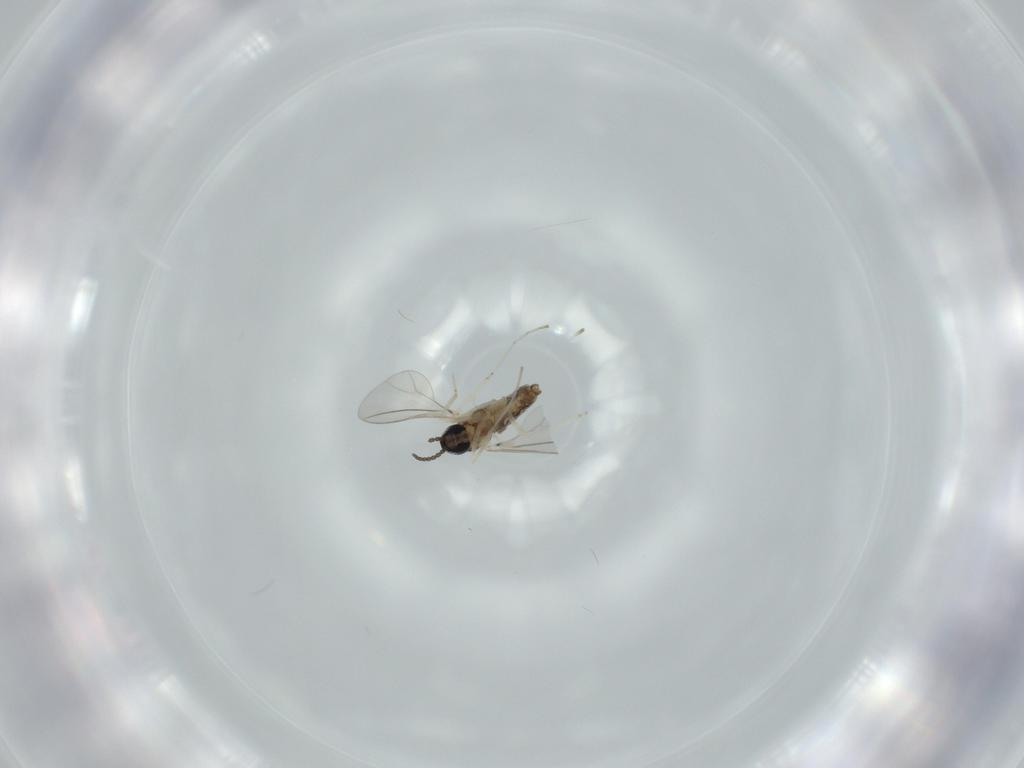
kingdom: Animalia
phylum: Arthropoda
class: Insecta
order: Diptera
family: Cecidomyiidae
